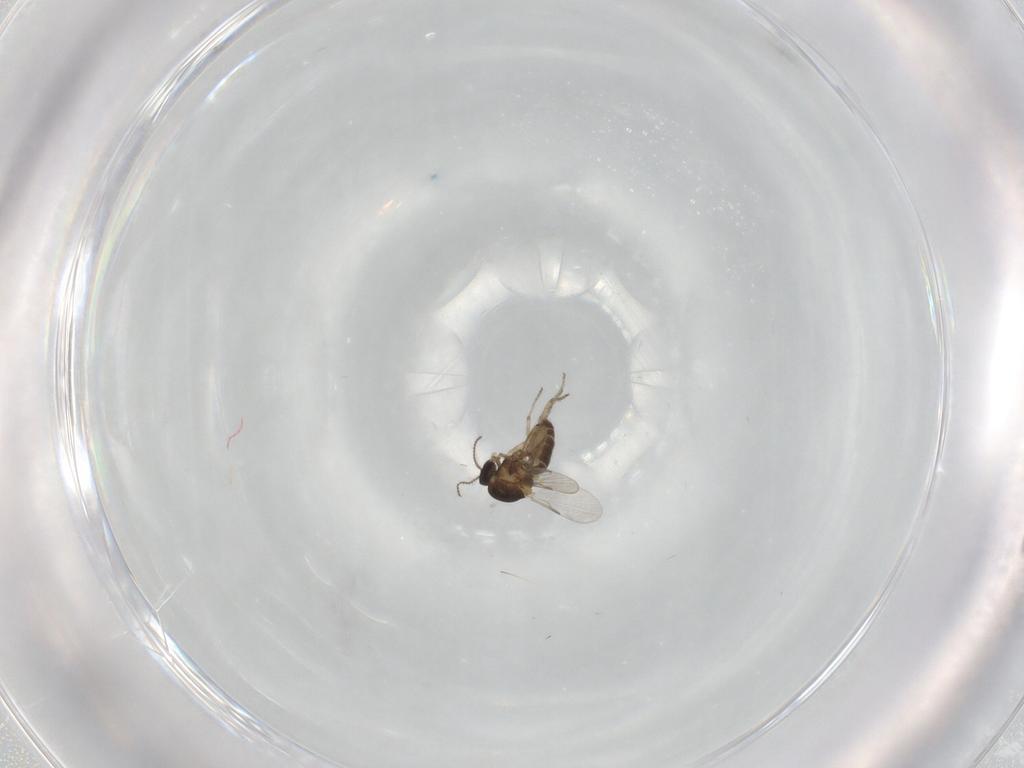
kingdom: Animalia
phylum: Arthropoda
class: Insecta
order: Diptera
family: Ceratopogonidae
